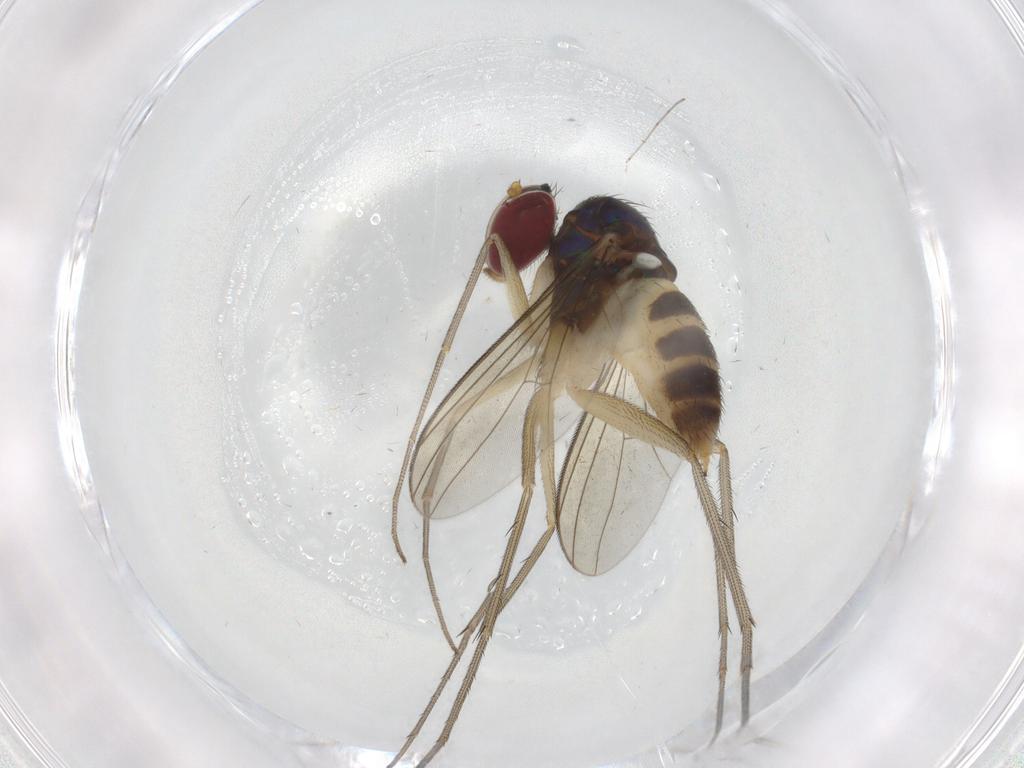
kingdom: Animalia
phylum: Arthropoda
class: Insecta
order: Diptera
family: Dolichopodidae
